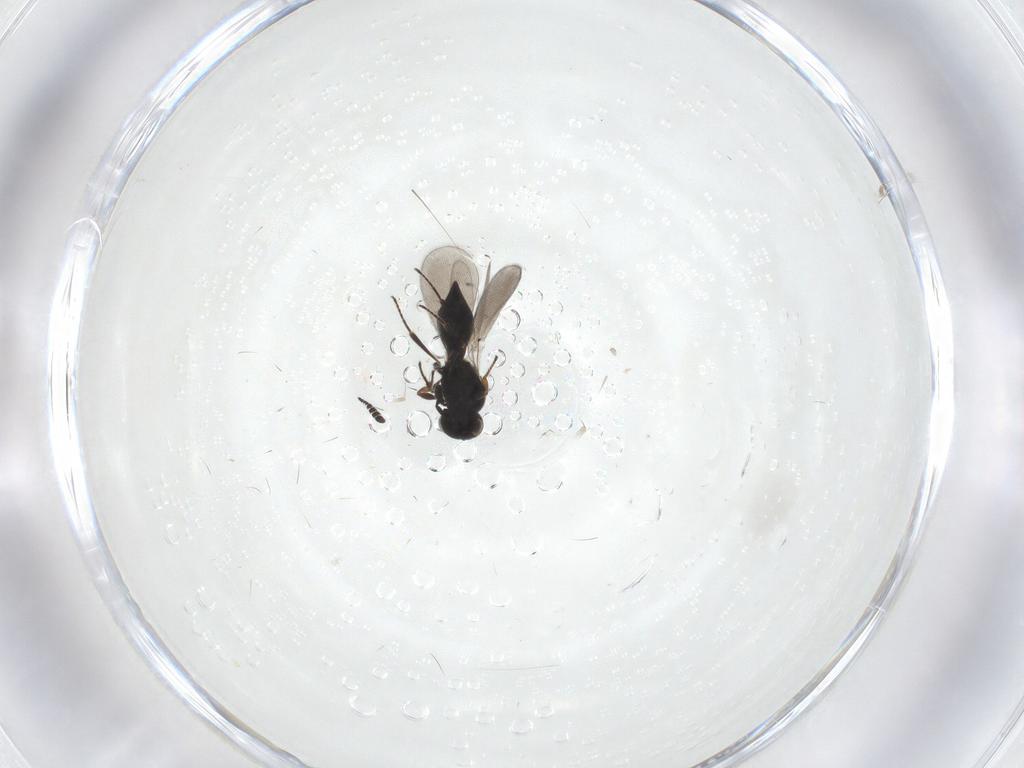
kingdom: Animalia
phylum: Arthropoda
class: Insecta
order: Hymenoptera
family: Platygastridae
